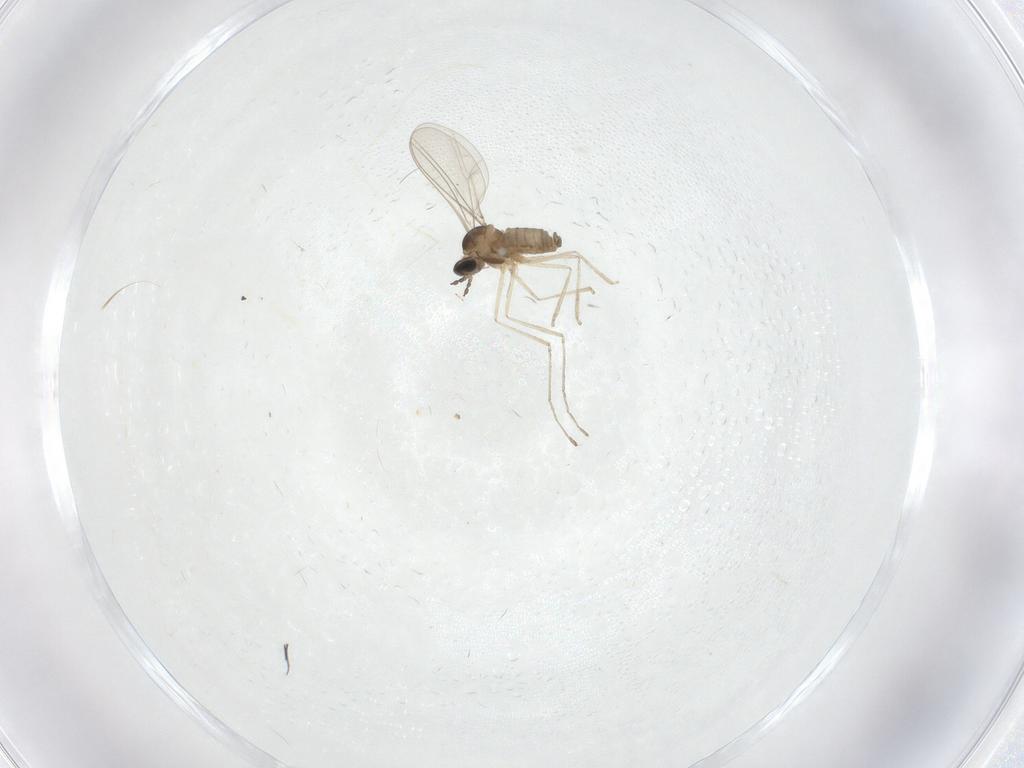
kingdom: Animalia
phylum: Arthropoda
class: Insecta
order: Diptera
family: Cecidomyiidae
